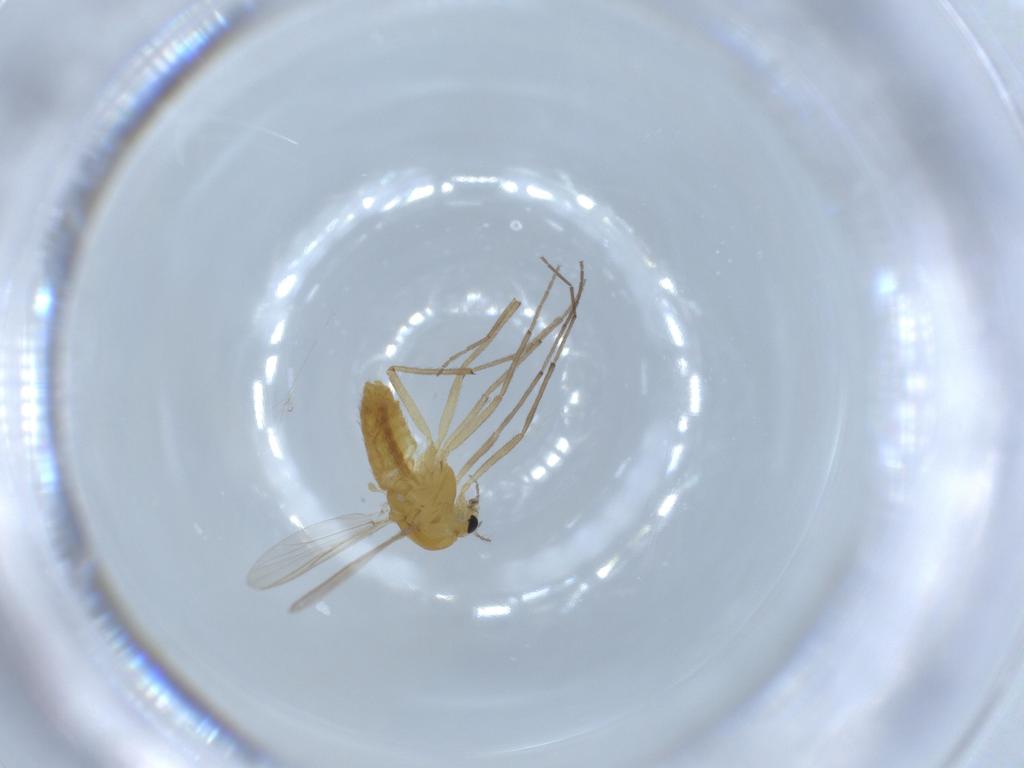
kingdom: Animalia
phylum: Arthropoda
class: Insecta
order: Diptera
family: Chironomidae
